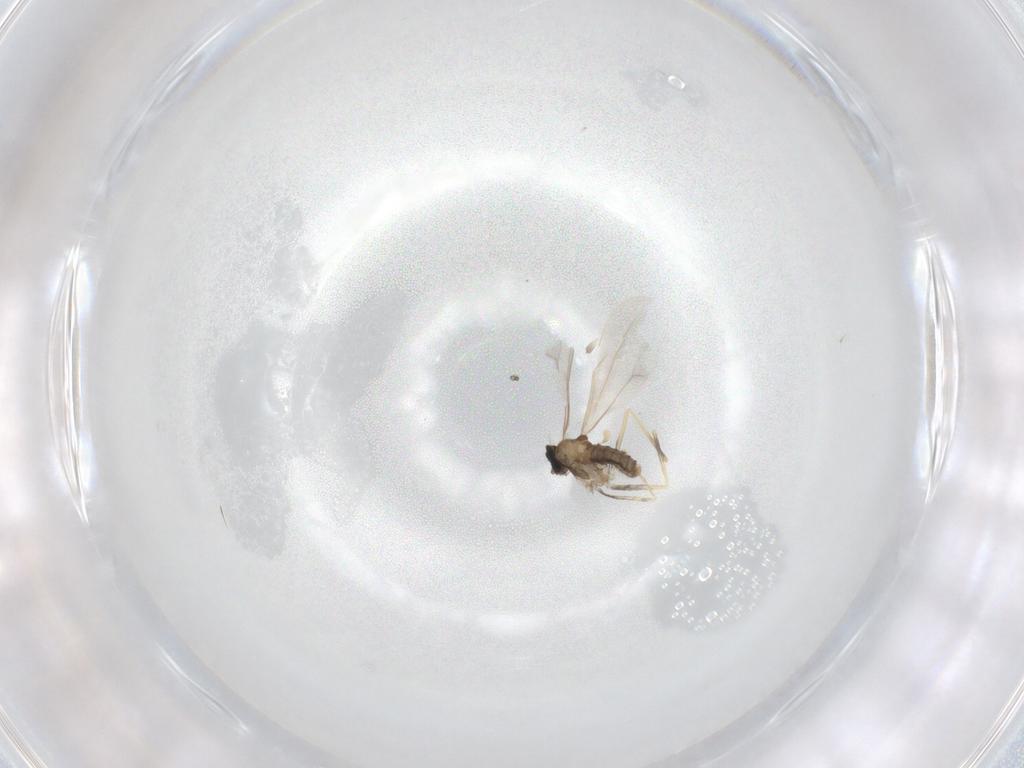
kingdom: Animalia
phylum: Arthropoda
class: Insecta
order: Diptera
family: Cecidomyiidae
